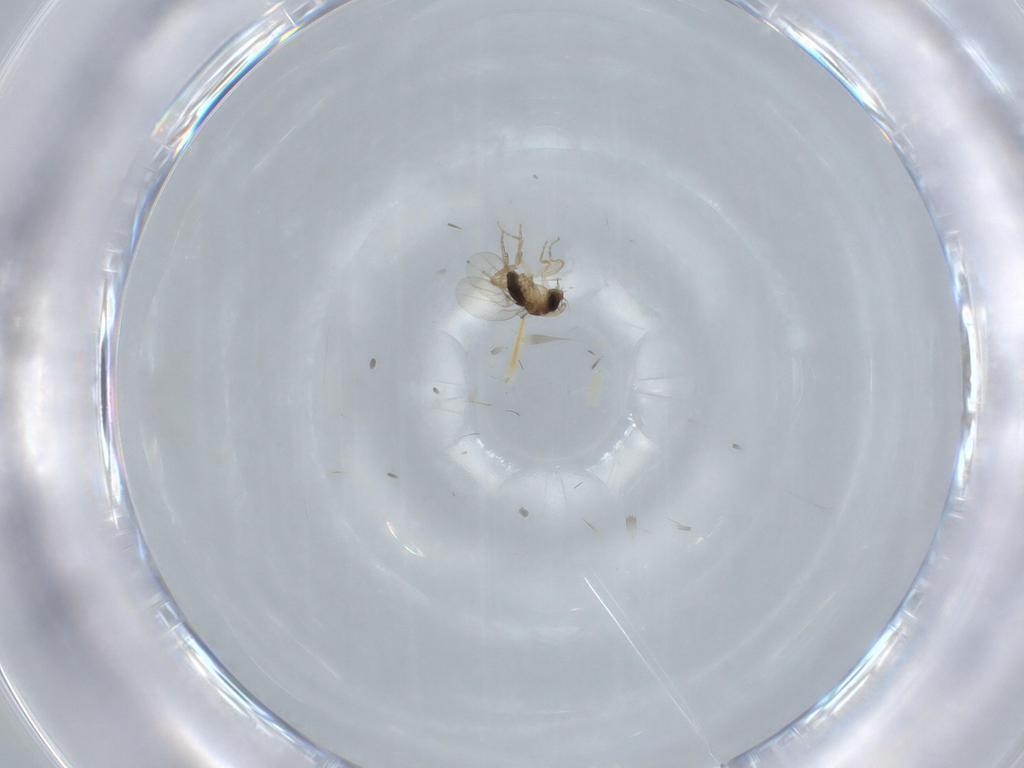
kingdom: Animalia
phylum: Arthropoda
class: Insecta
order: Diptera
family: Phoridae
